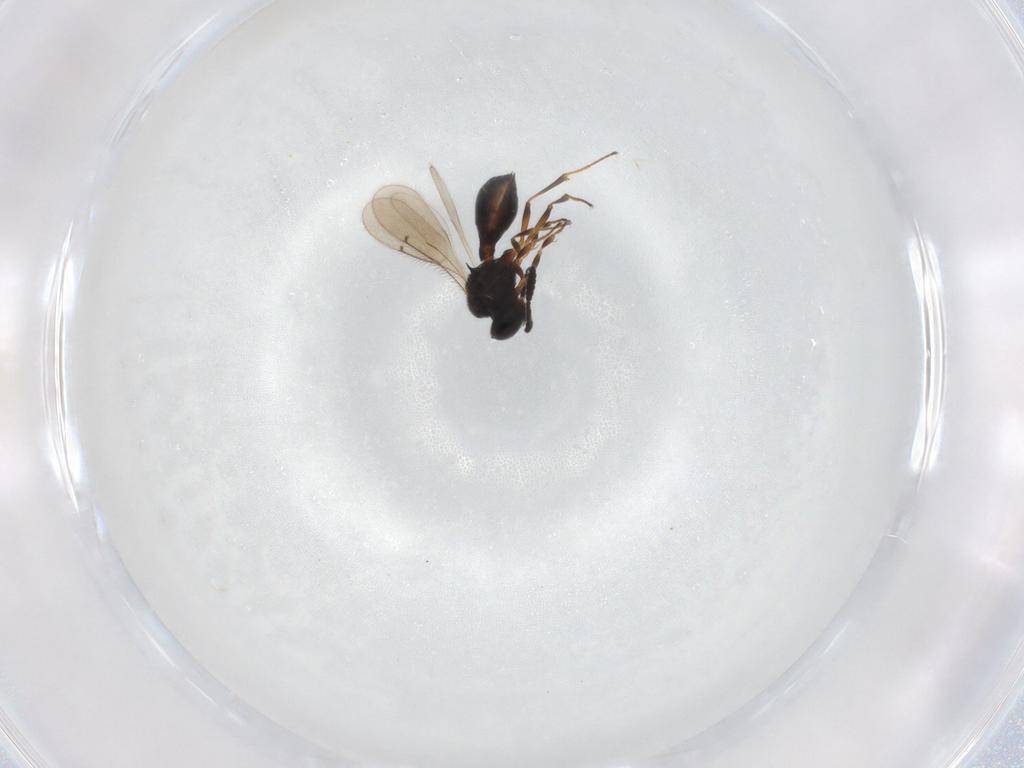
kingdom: Animalia
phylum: Arthropoda
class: Insecta
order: Hymenoptera
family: Scelionidae
